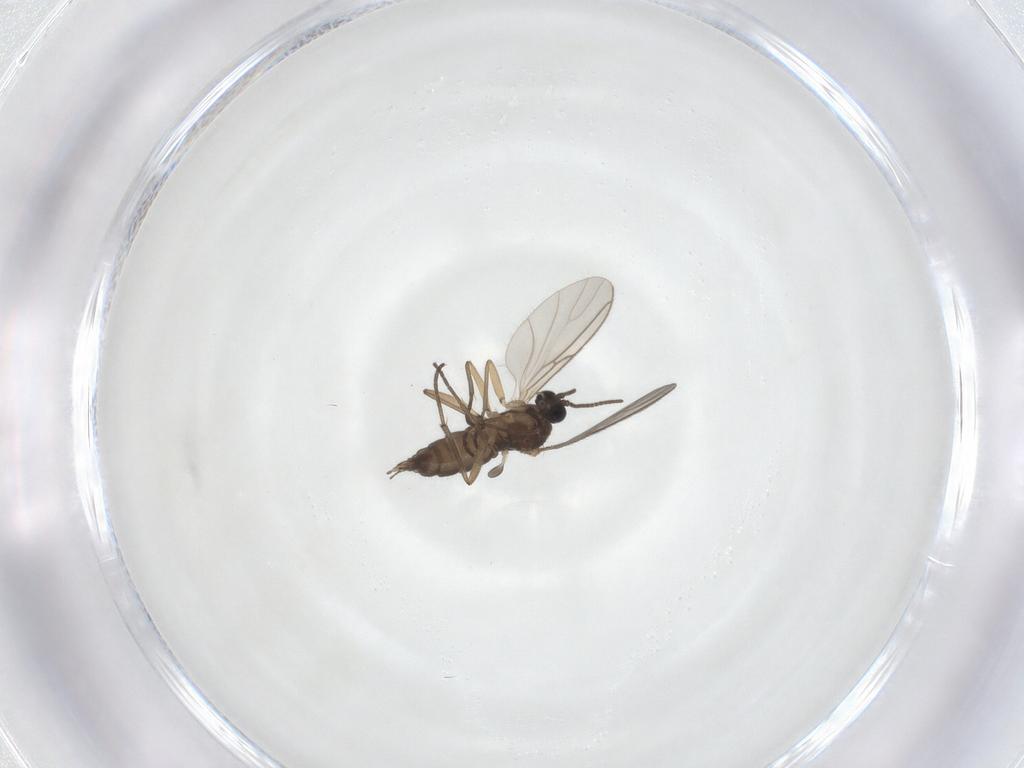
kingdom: Animalia
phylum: Arthropoda
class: Insecta
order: Diptera
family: Sciaridae
